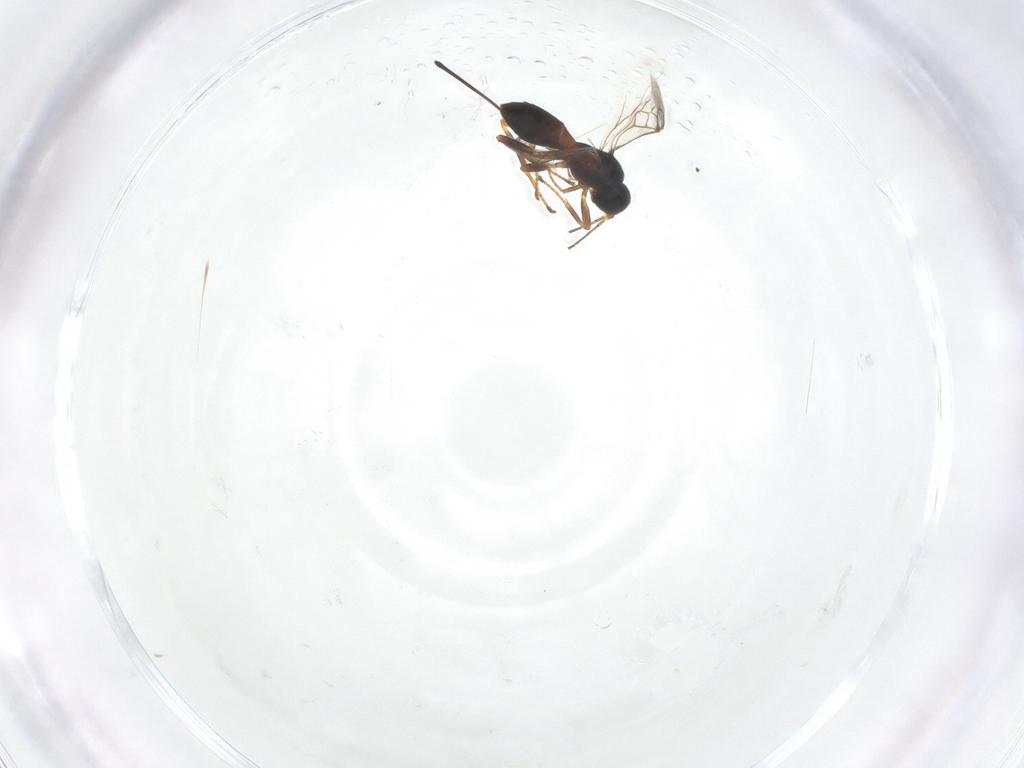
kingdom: Animalia
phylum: Arthropoda
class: Insecta
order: Hymenoptera
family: Braconidae
